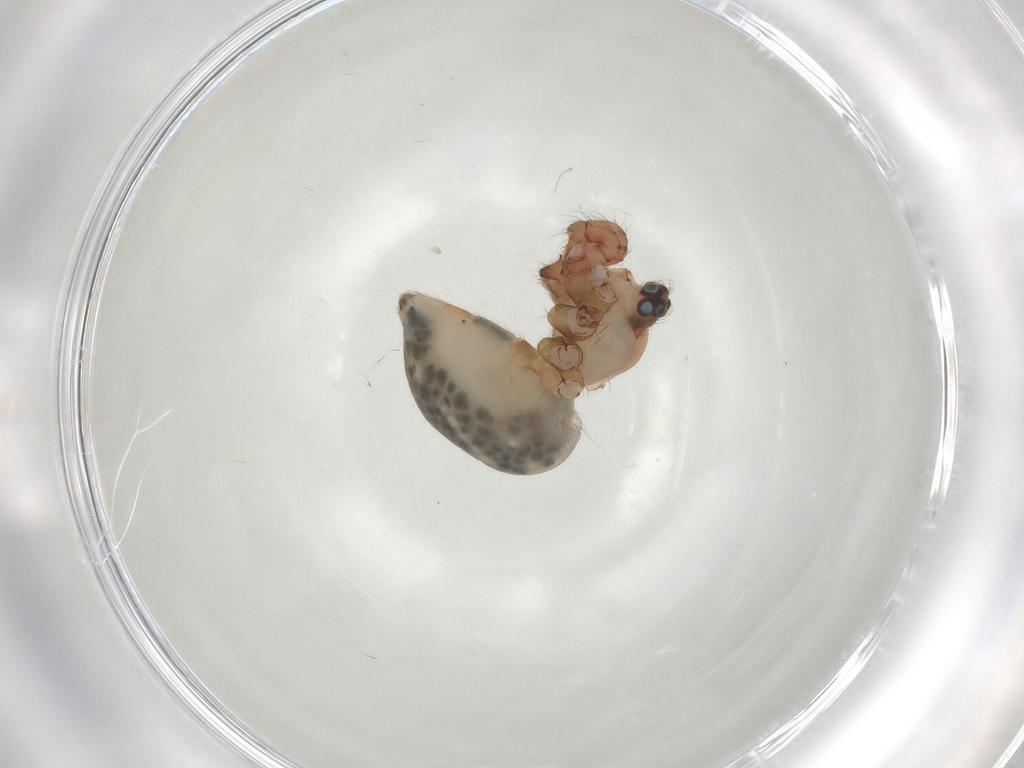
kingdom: Animalia
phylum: Arthropoda
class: Arachnida
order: Araneae
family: Pholcidae
